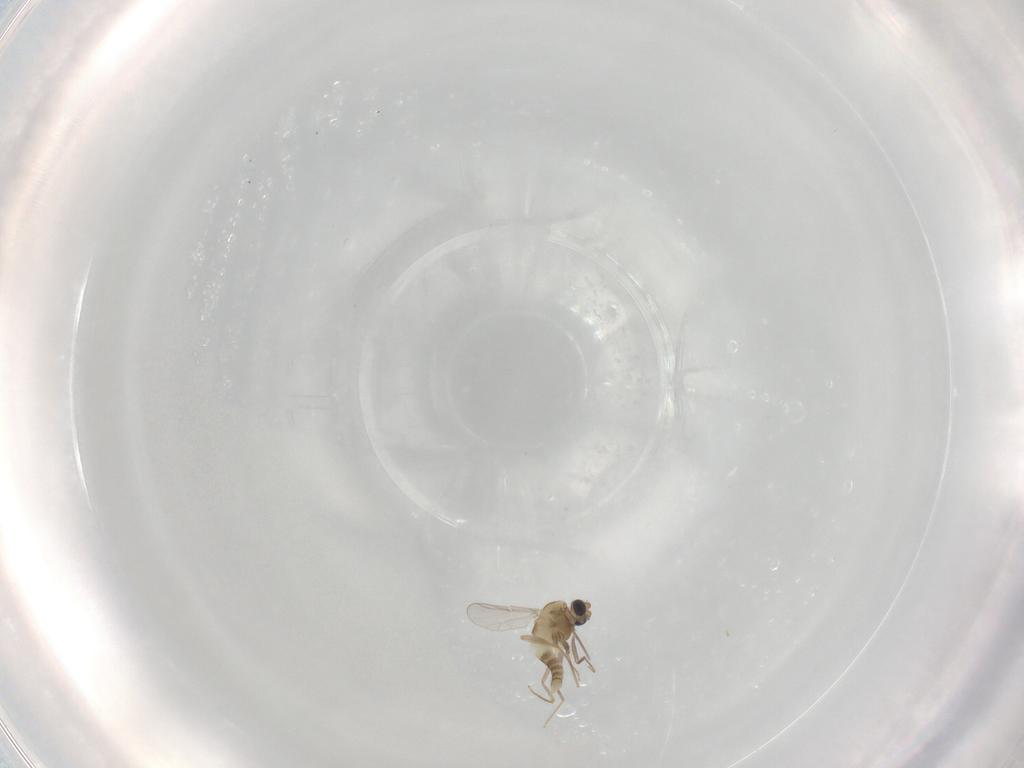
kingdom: Animalia
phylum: Arthropoda
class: Insecta
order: Diptera
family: Cecidomyiidae
